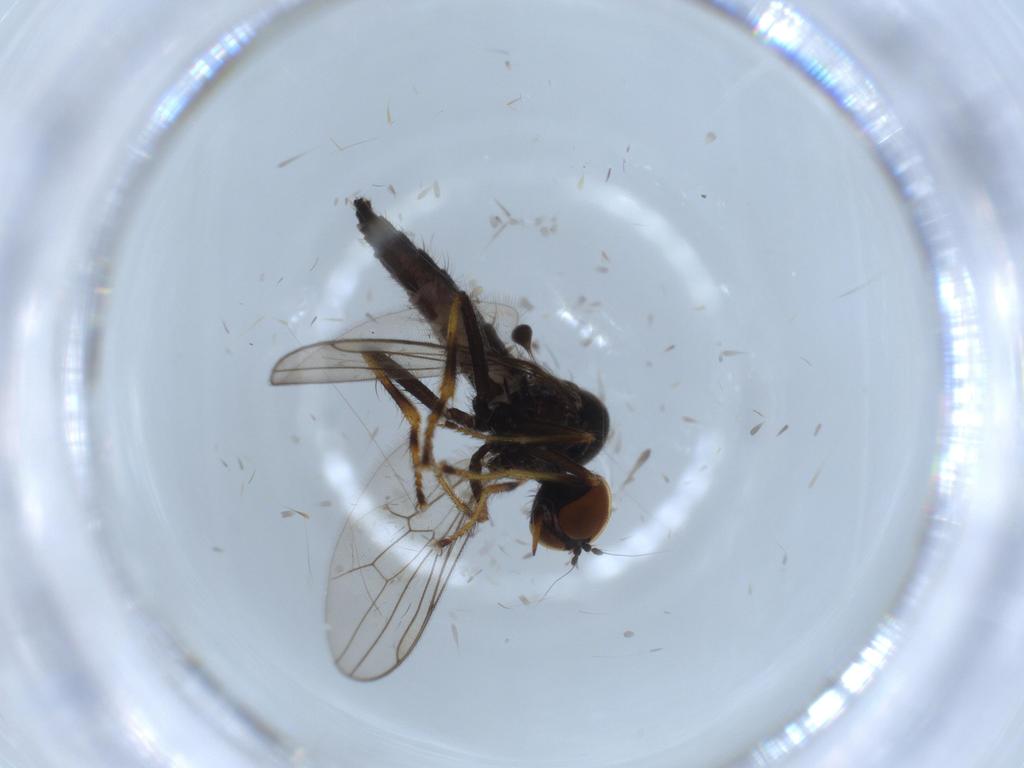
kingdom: Animalia
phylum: Arthropoda
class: Insecta
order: Diptera
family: Hybotidae
